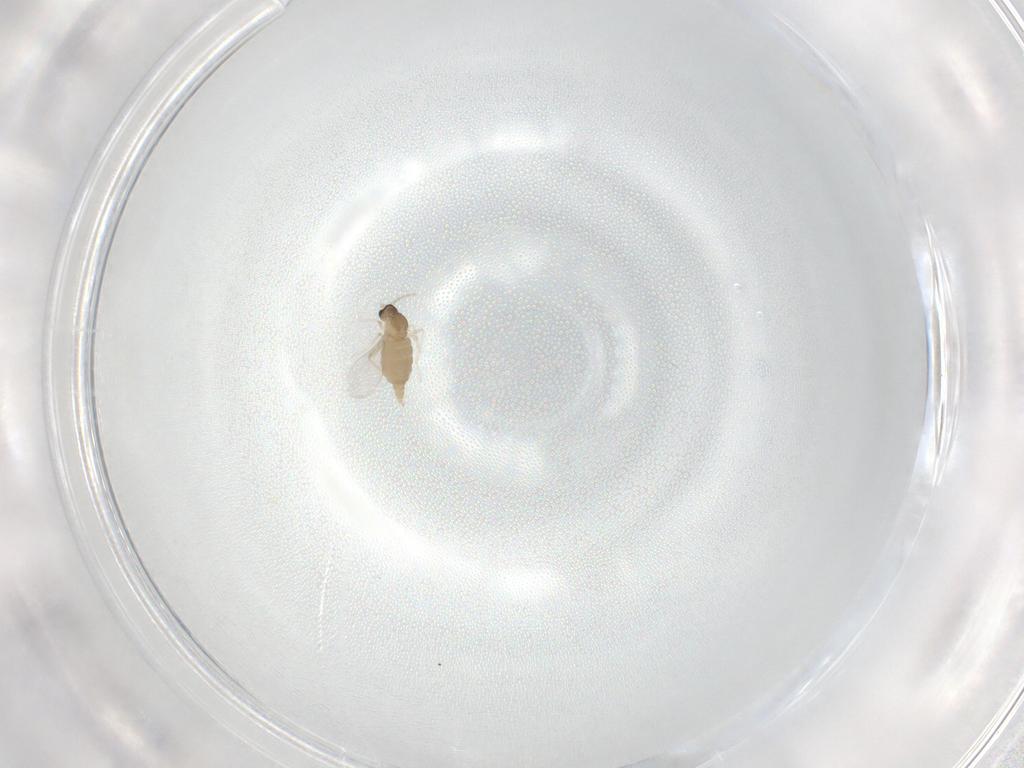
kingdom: Animalia
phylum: Arthropoda
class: Insecta
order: Diptera
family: Cecidomyiidae
